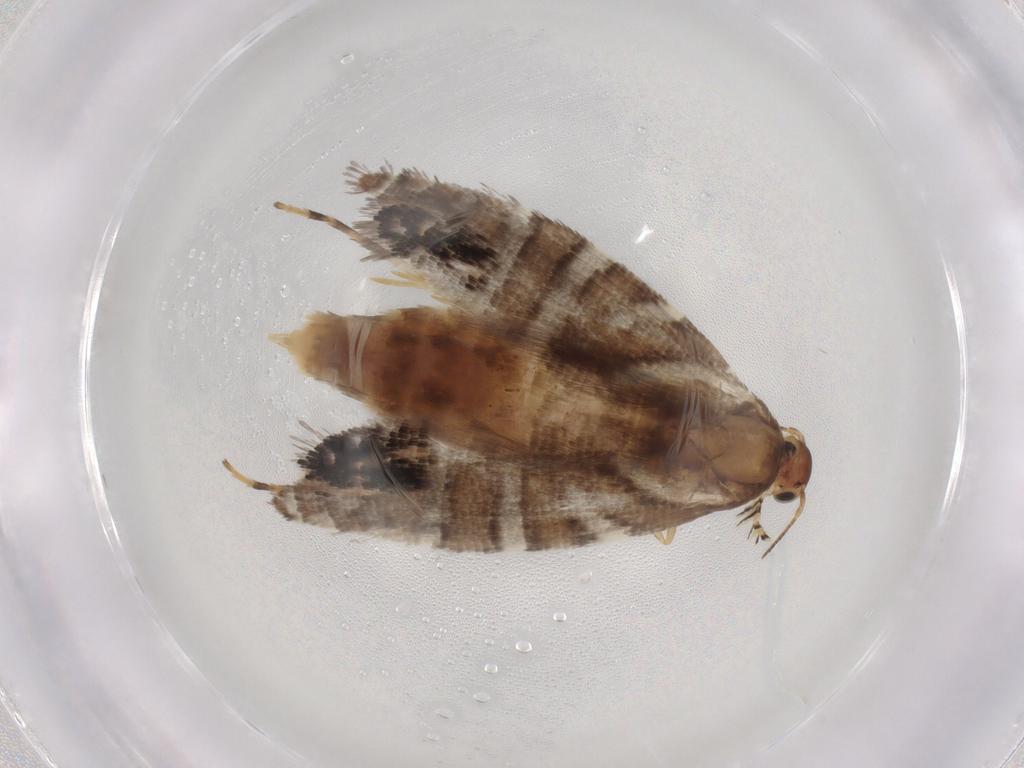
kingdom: Animalia
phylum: Arthropoda
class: Insecta
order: Lepidoptera
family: Glyphipterigidae
